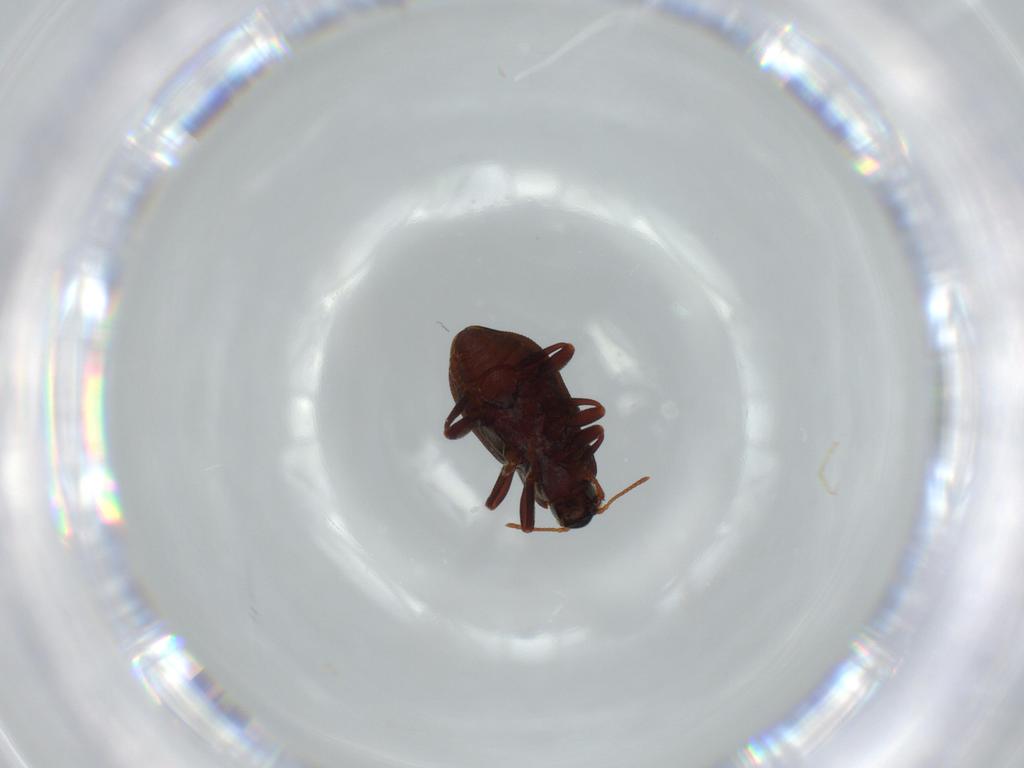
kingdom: Animalia
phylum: Arthropoda
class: Insecta
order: Coleoptera
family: Elmidae
